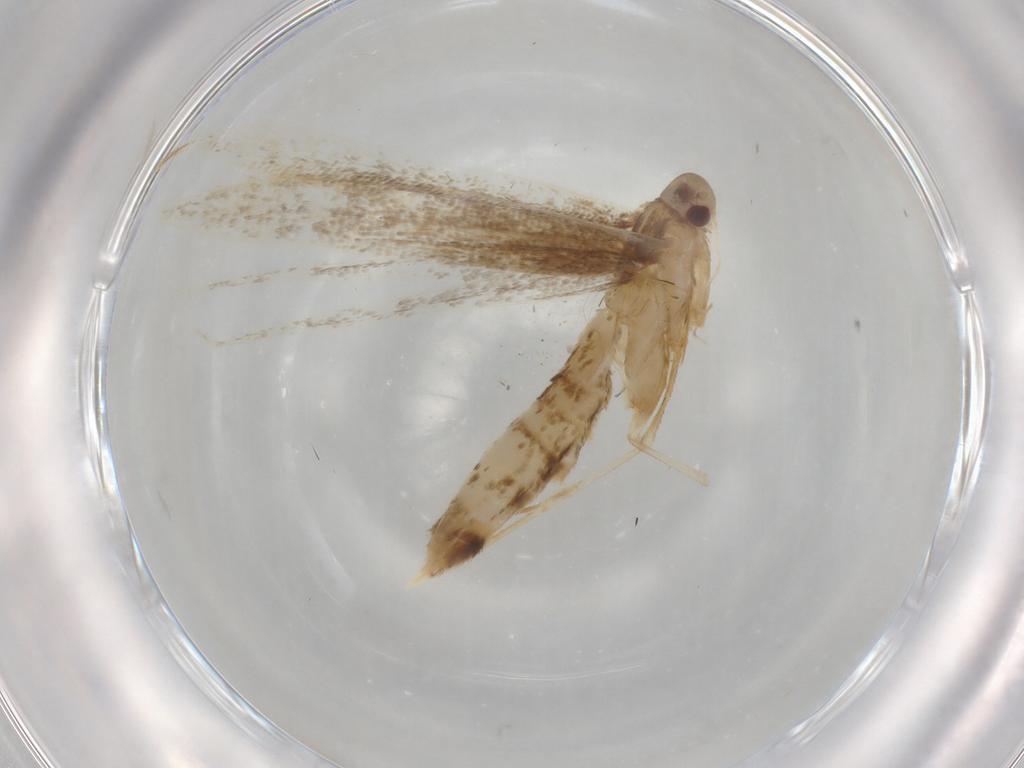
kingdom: Animalia
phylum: Arthropoda
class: Insecta
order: Lepidoptera
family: Cosmopterigidae
